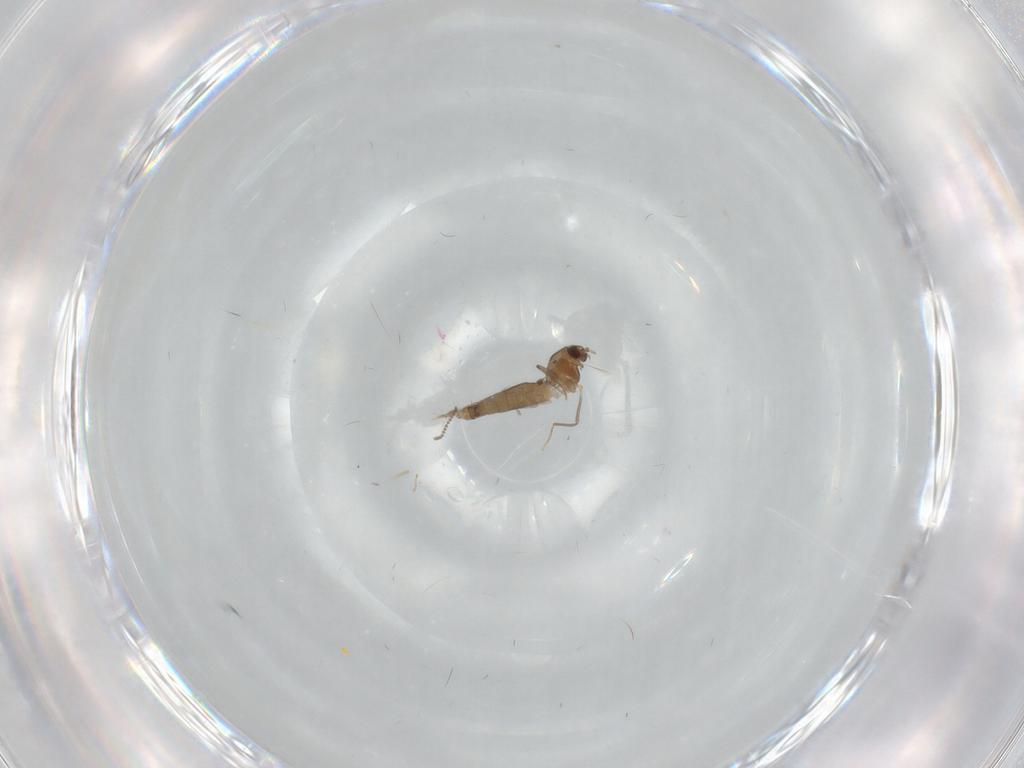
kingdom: Animalia
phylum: Arthropoda
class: Insecta
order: Diptera
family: Chironomidae
